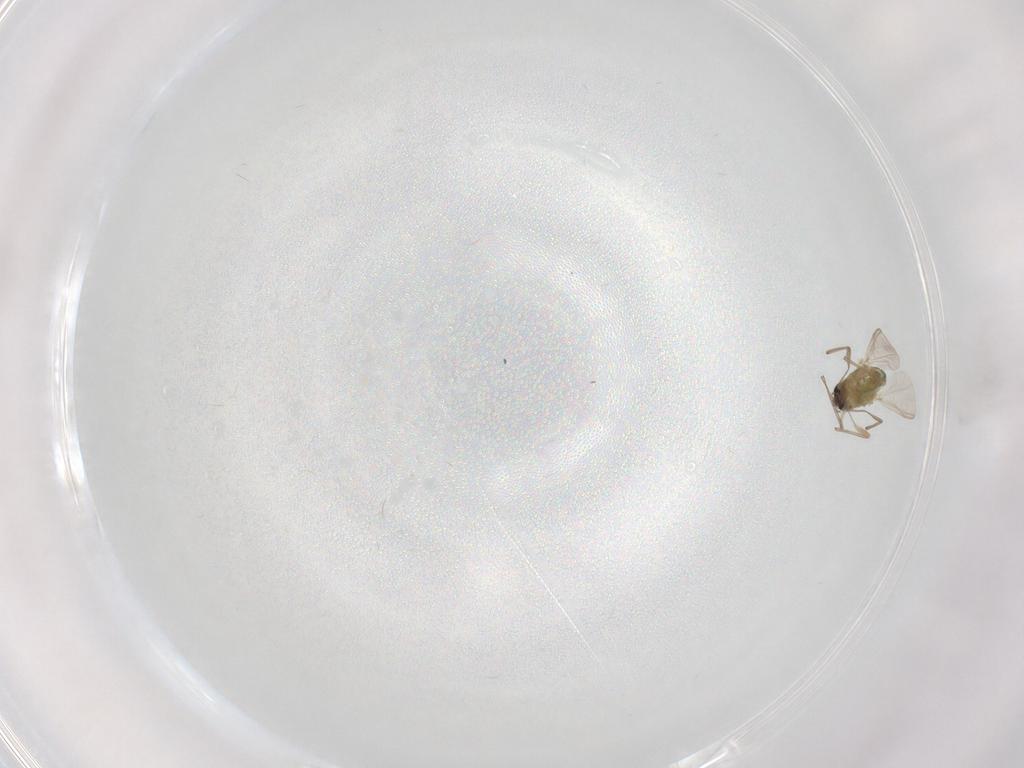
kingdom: Animalia
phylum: Arthropoda
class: Insecta
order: Diptera
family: Chironomidae
